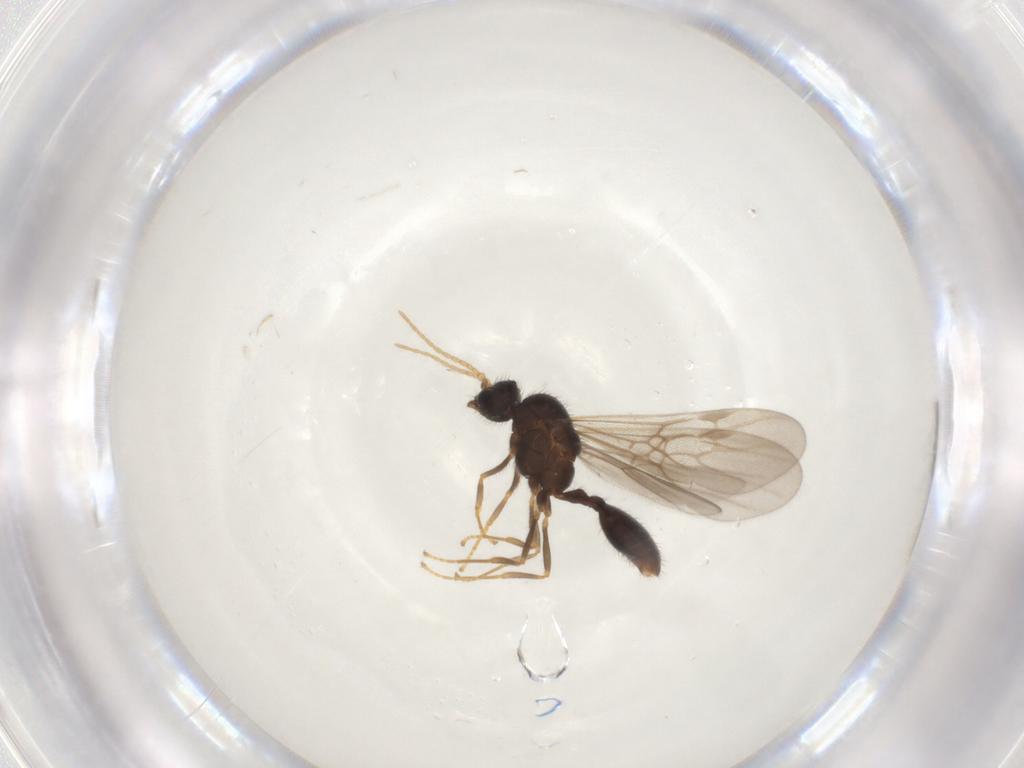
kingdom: Animalia
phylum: Arthropoda
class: Insecta
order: Hymenoptera
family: Formicidae
